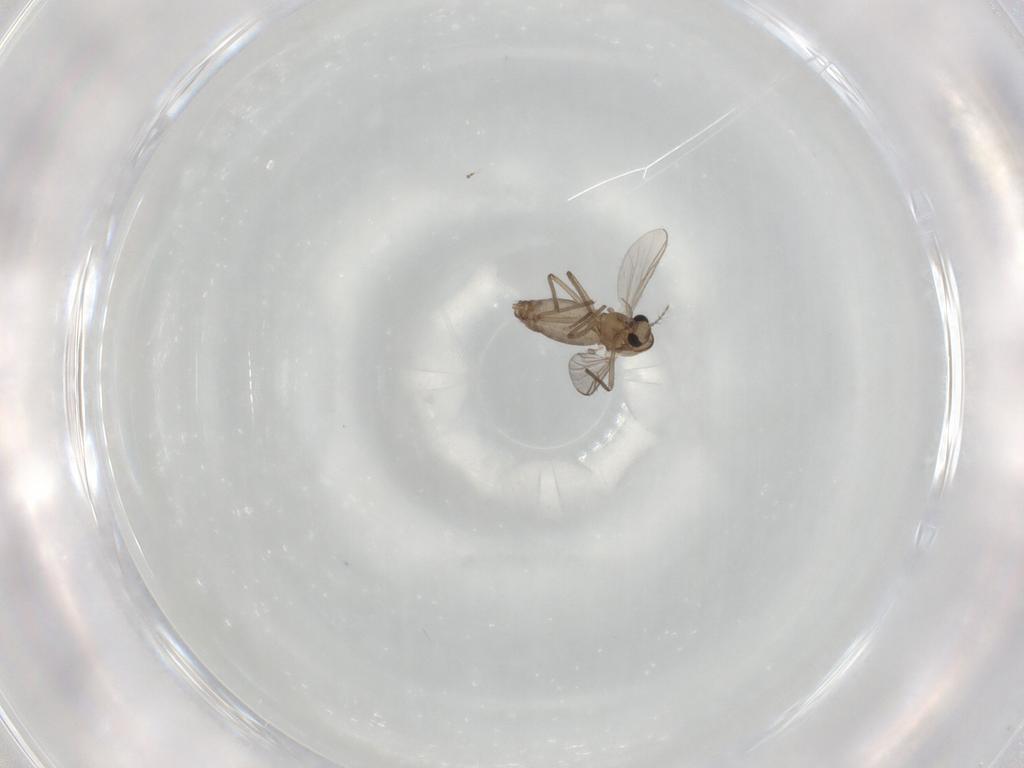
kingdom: Animalia
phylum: Arthropoda
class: Insecta
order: Diptera
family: Chironomidae
